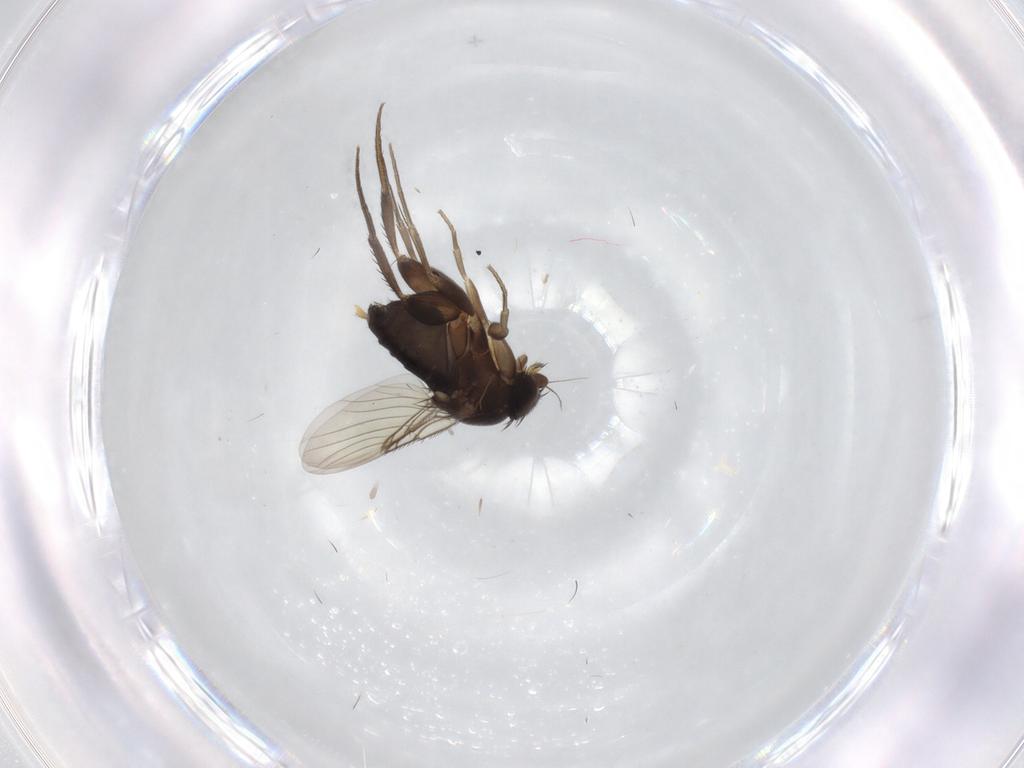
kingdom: Animalia
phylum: Arthropoda
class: Insecta
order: Diptera
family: Phoridae
